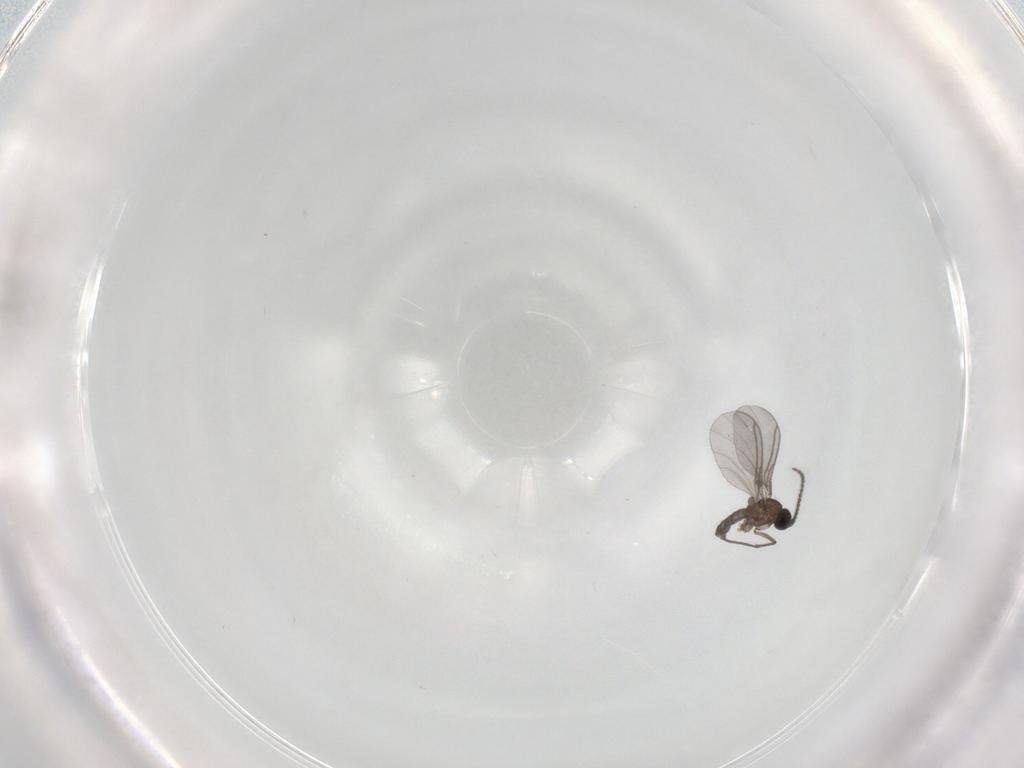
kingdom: Animalia
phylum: Arthropoda
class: Insecta
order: Diptera
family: Sciaridae
